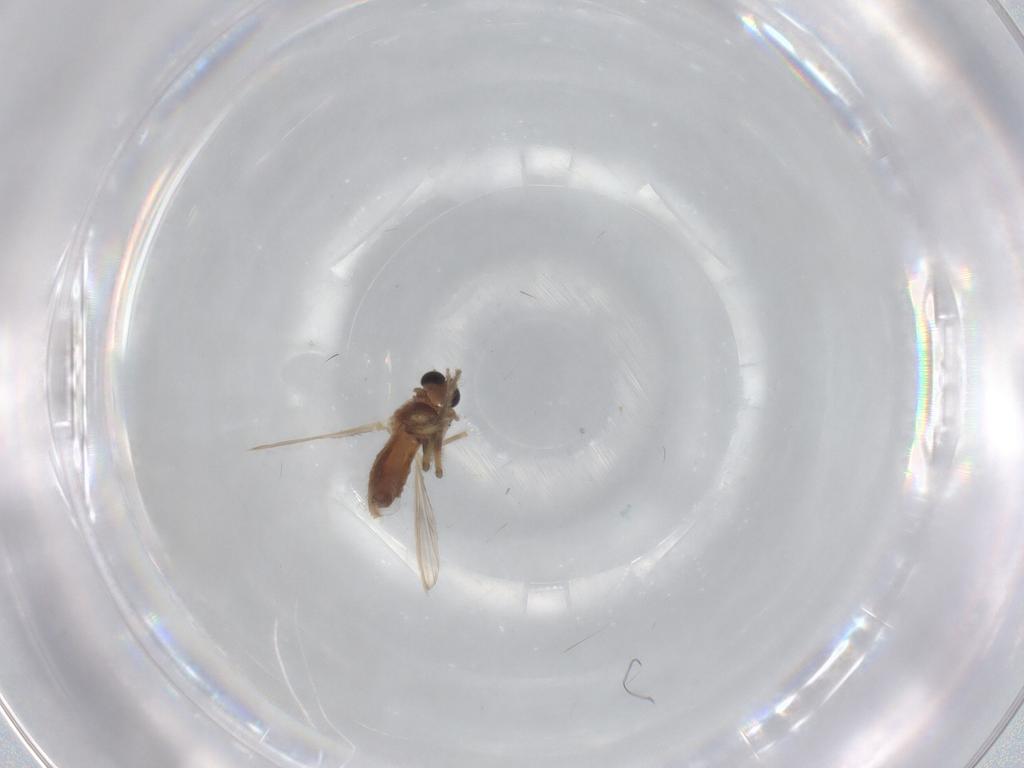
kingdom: Animalia
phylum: Arthropoda
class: Insecta
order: Diptera
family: Chironomidae
